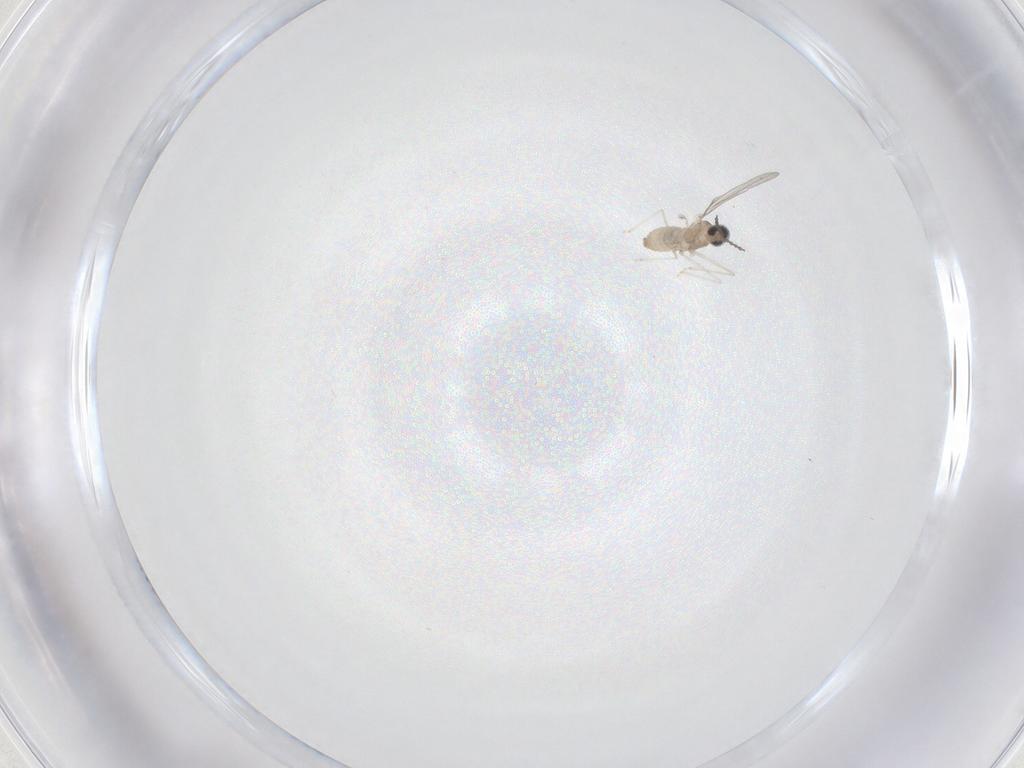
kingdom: Animalia
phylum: Arthropoda
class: Insecta
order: Diptera
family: Cecidomyiidae
